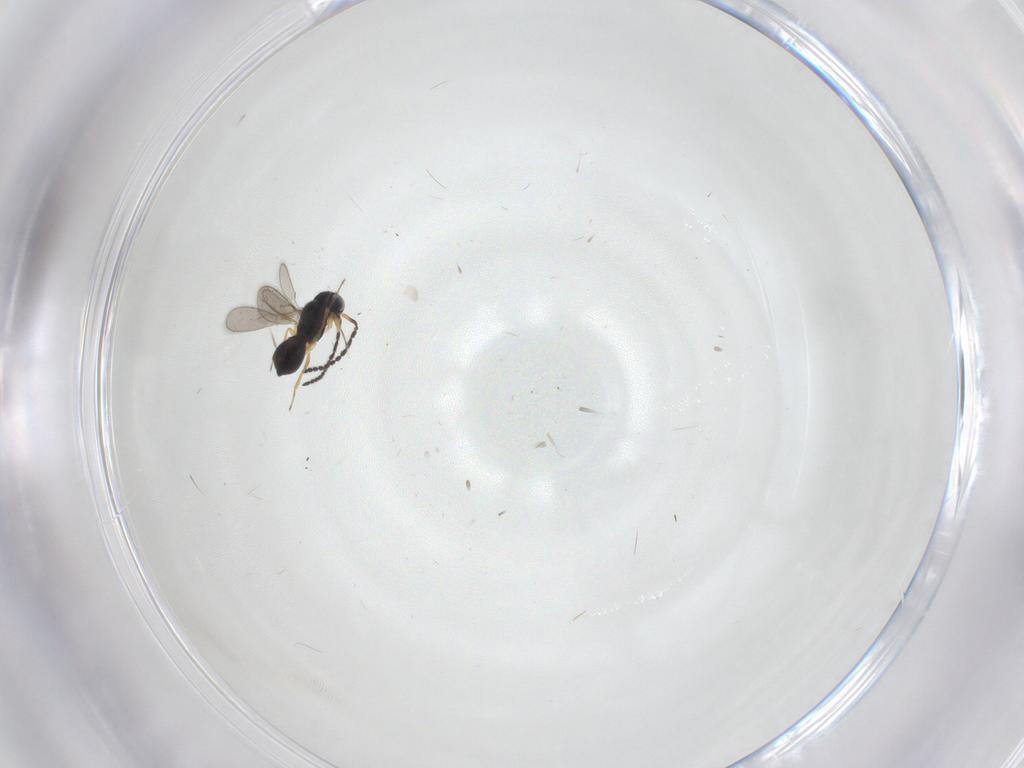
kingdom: Animalia
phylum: Arthropoda
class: Insecta
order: Hymenoptera
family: Scelionidae
